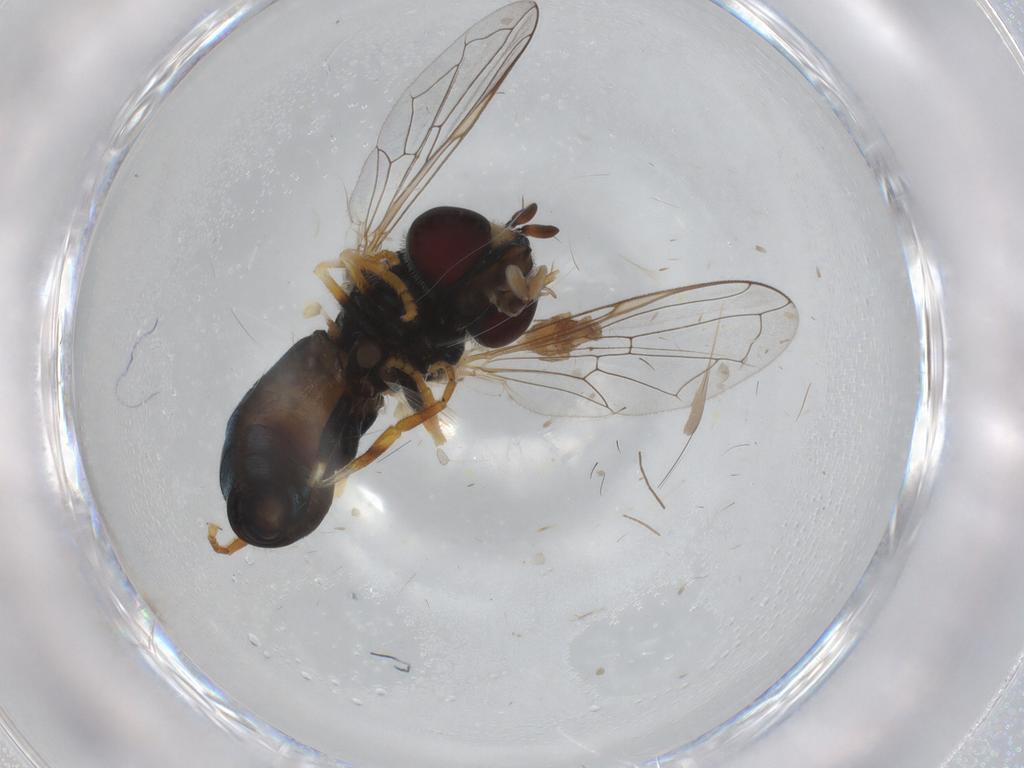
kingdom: Animalia
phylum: Arthropoda
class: Insecta
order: Diptera
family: Syrphidae
